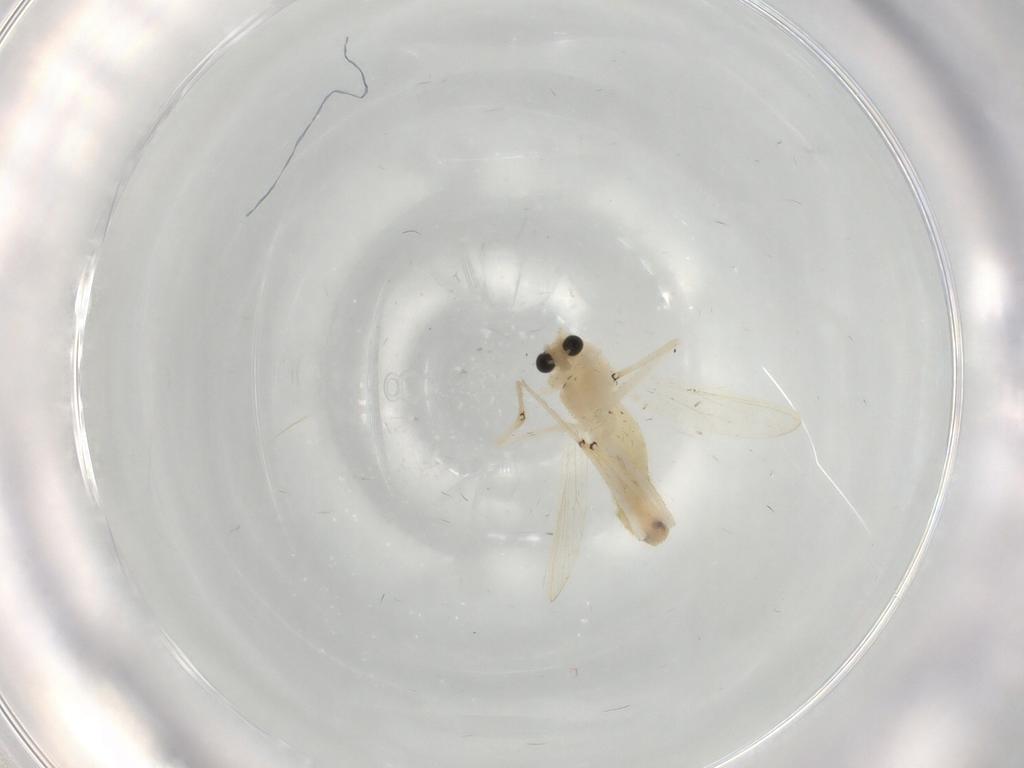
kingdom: Animalia
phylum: Arthropoda
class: Insecta
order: Diptera
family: Chironomidae
